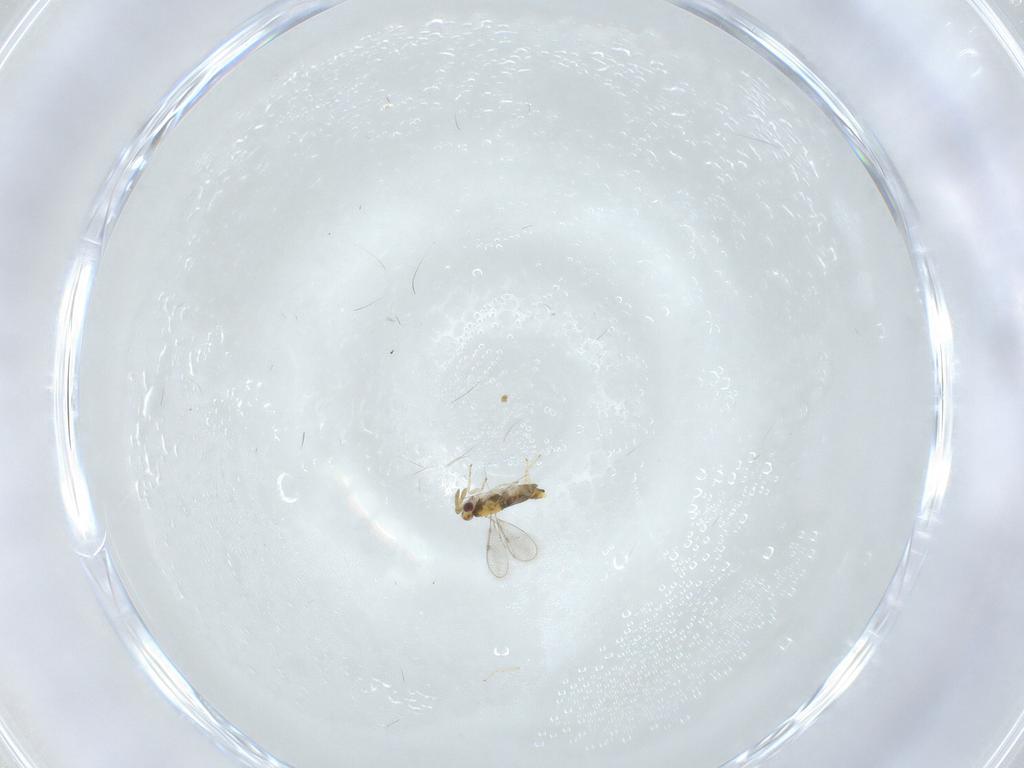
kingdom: Animalia
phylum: Arthropoda
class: Insecta
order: Hymenoptera
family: Aphelinidae
